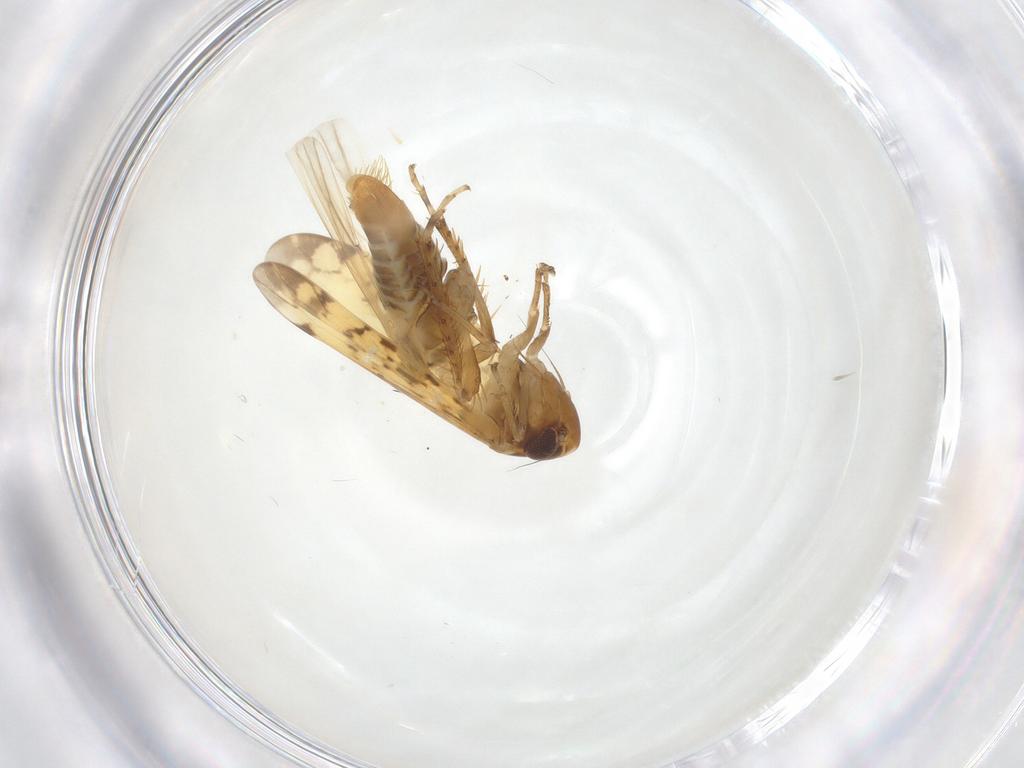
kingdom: Animalia
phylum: Arthropoda
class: Insecta
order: Hemiptera
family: Cicadellidae
